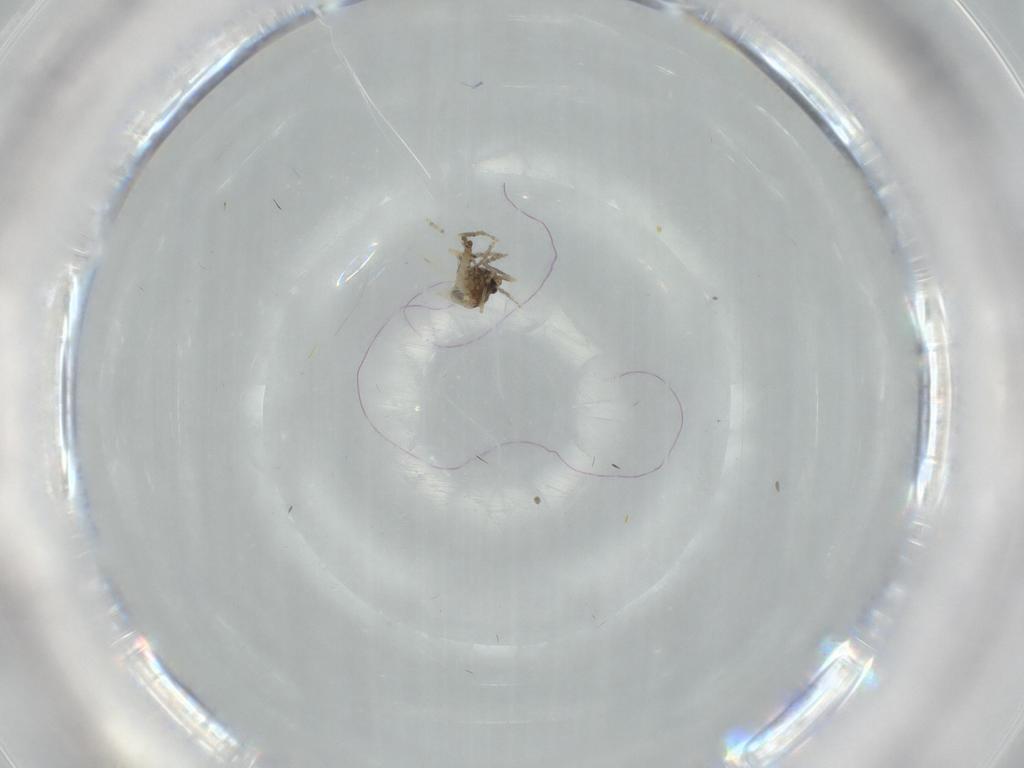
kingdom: Animalia
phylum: Arthropoda
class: Insecta
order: Diptera
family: Ceratopogonidae
